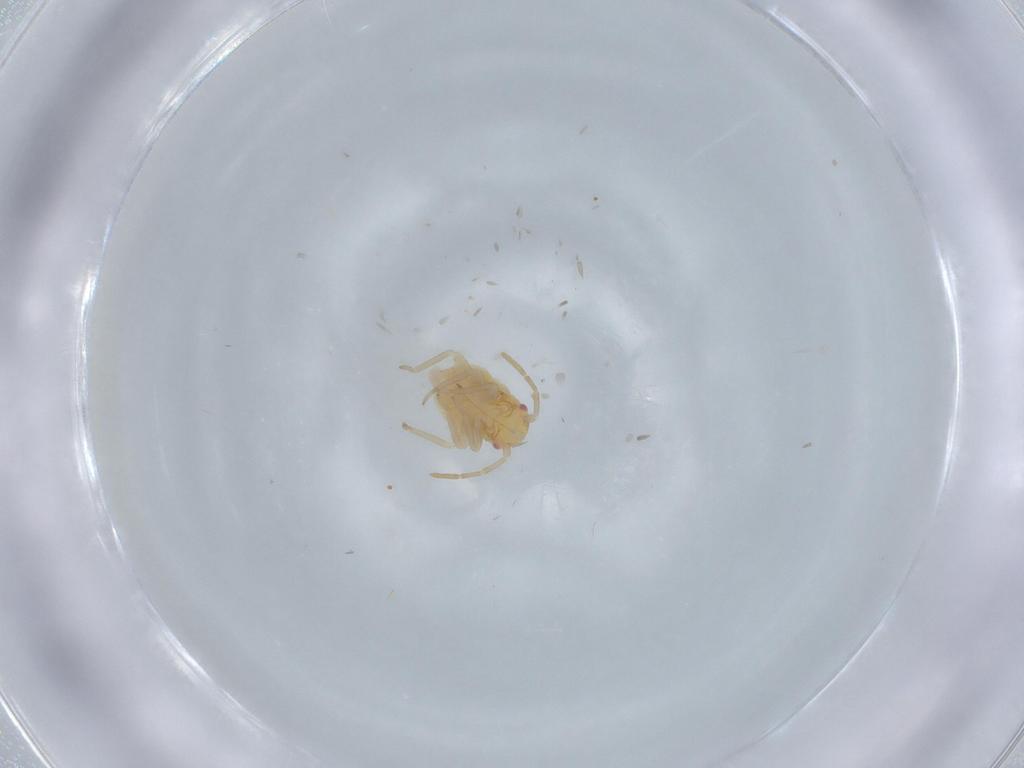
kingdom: Animalia
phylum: Arthropoda
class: Insecta
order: Hemiptera
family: Miridae
